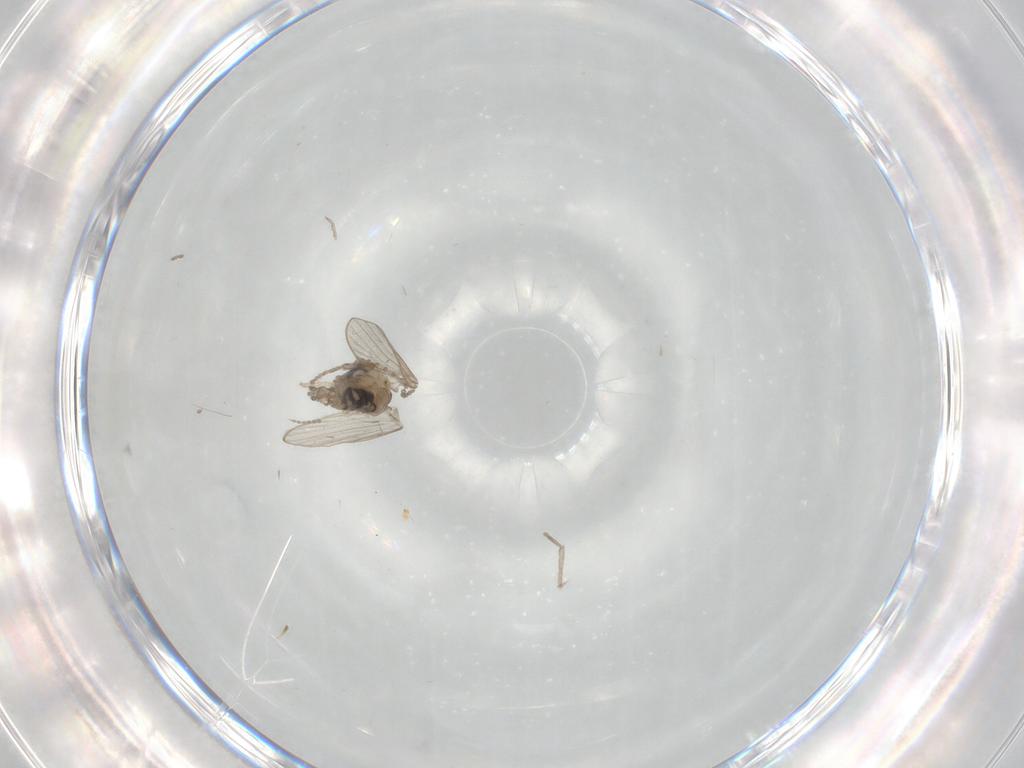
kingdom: Animalia
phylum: Arthropoda
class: Insecta
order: Diptera
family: Psychodidae
